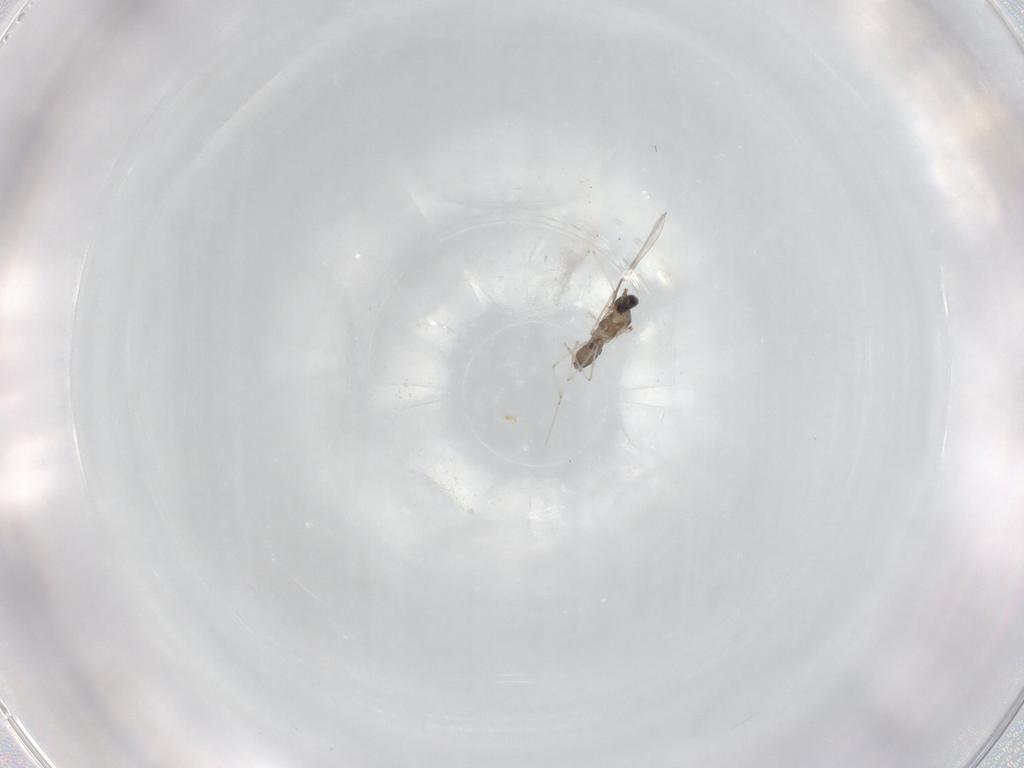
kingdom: Animalia
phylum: Arthropoda
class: Insecta
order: Diptera
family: Cecidomyiidae
